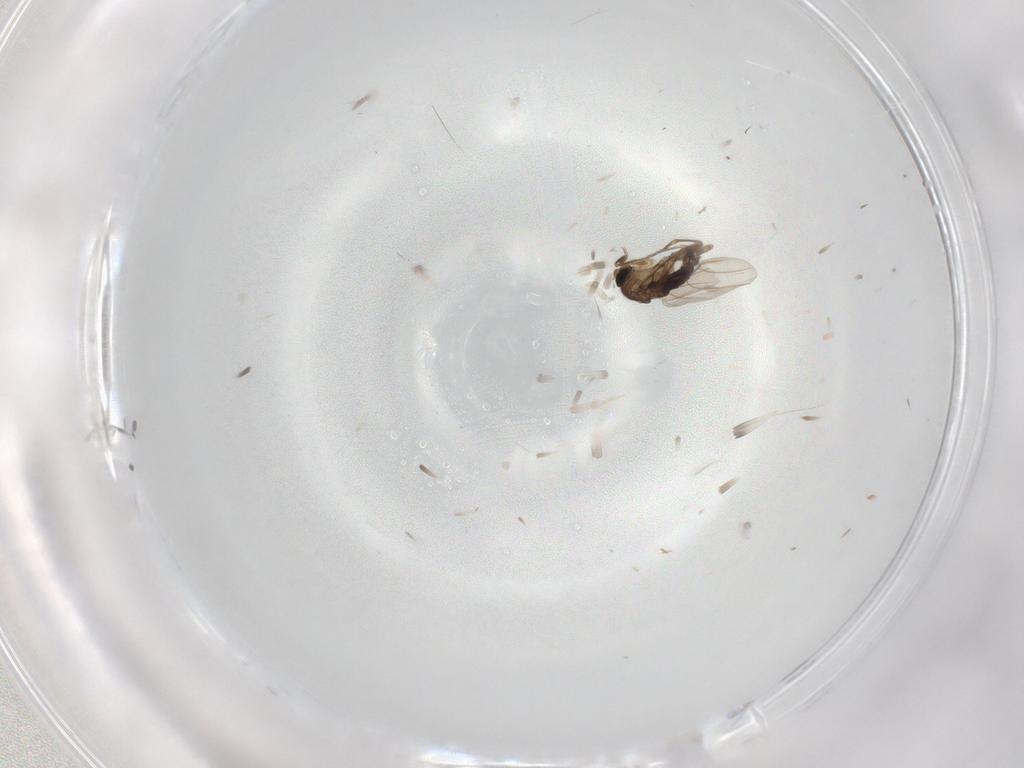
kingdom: Animalia
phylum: Arthropoda
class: Insecta
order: Diptera
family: Phoridae
